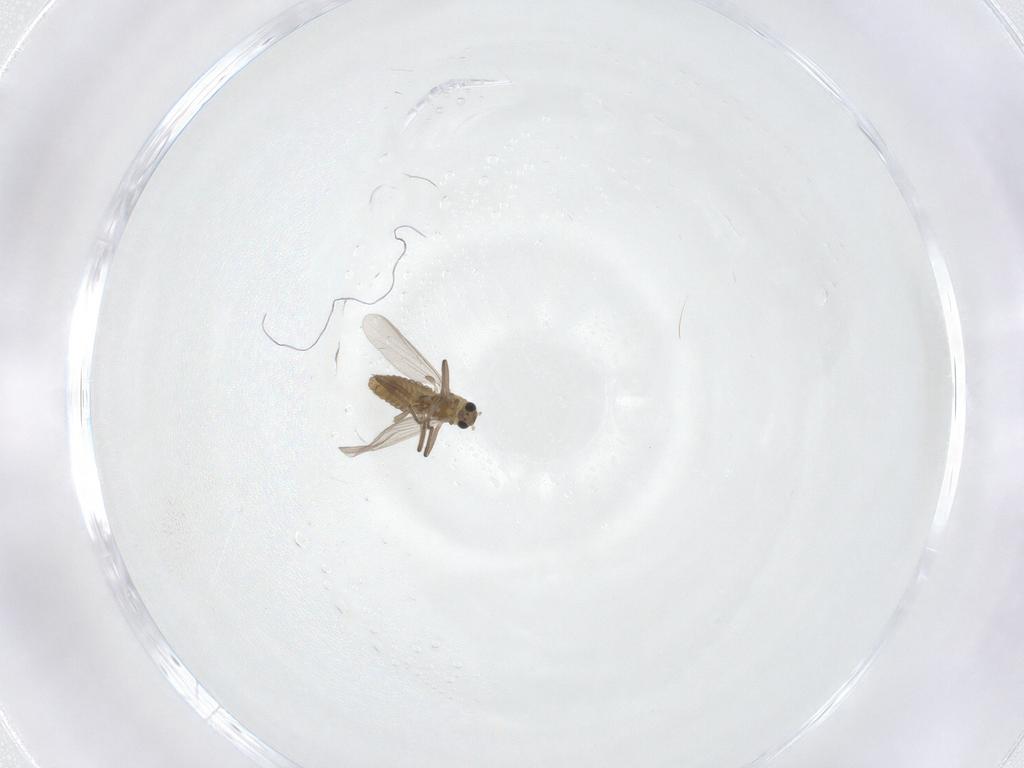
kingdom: Animalia
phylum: Arthropoda
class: Insecta
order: Diptera
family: Chironomidae
